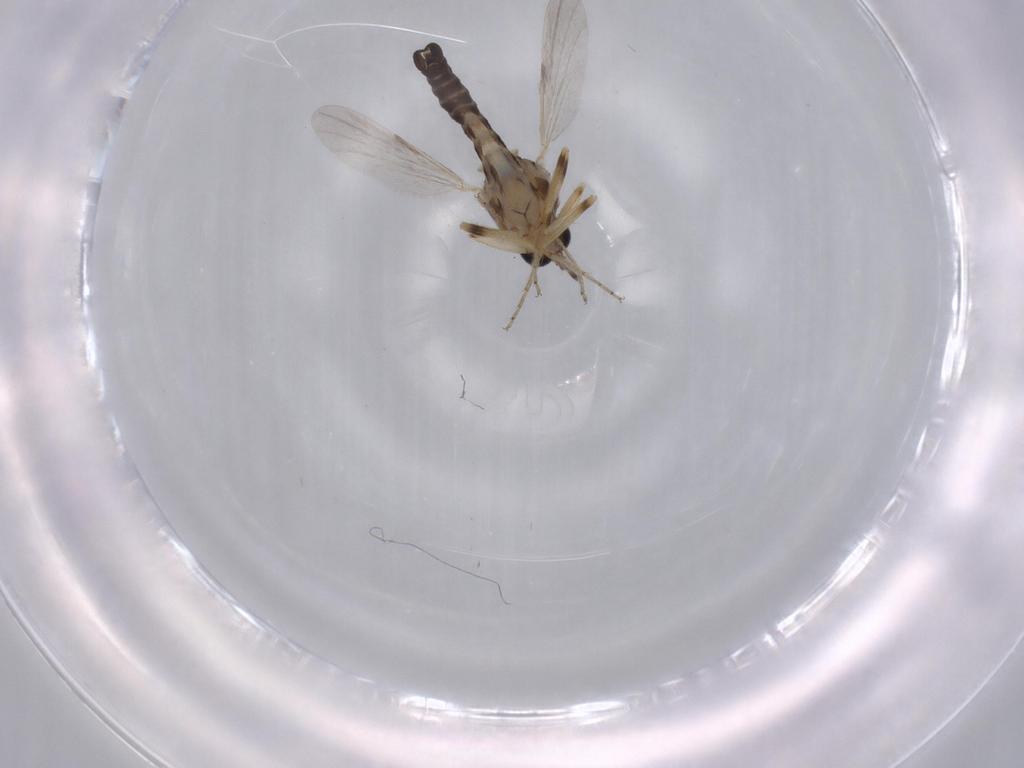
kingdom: Animalia
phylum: Arthropoda
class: Insecta
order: Diptera
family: Ceratopogonidae
